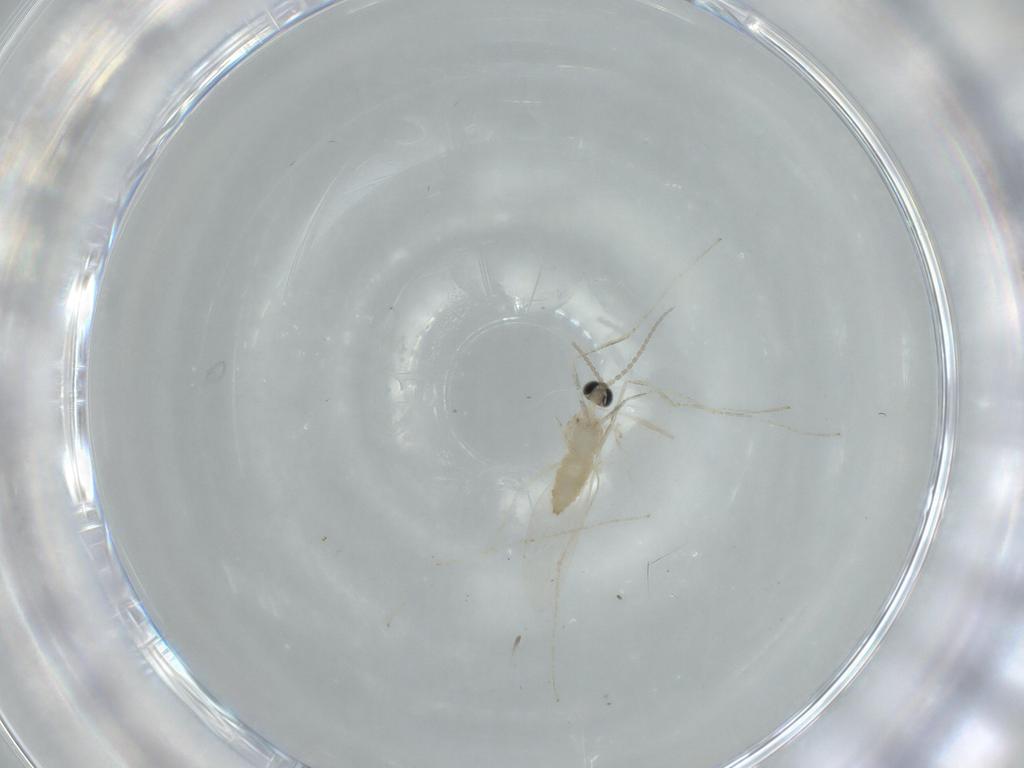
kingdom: Animalia
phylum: Arthropoda
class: Insecta
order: Diptera
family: Cecidomyiidae
